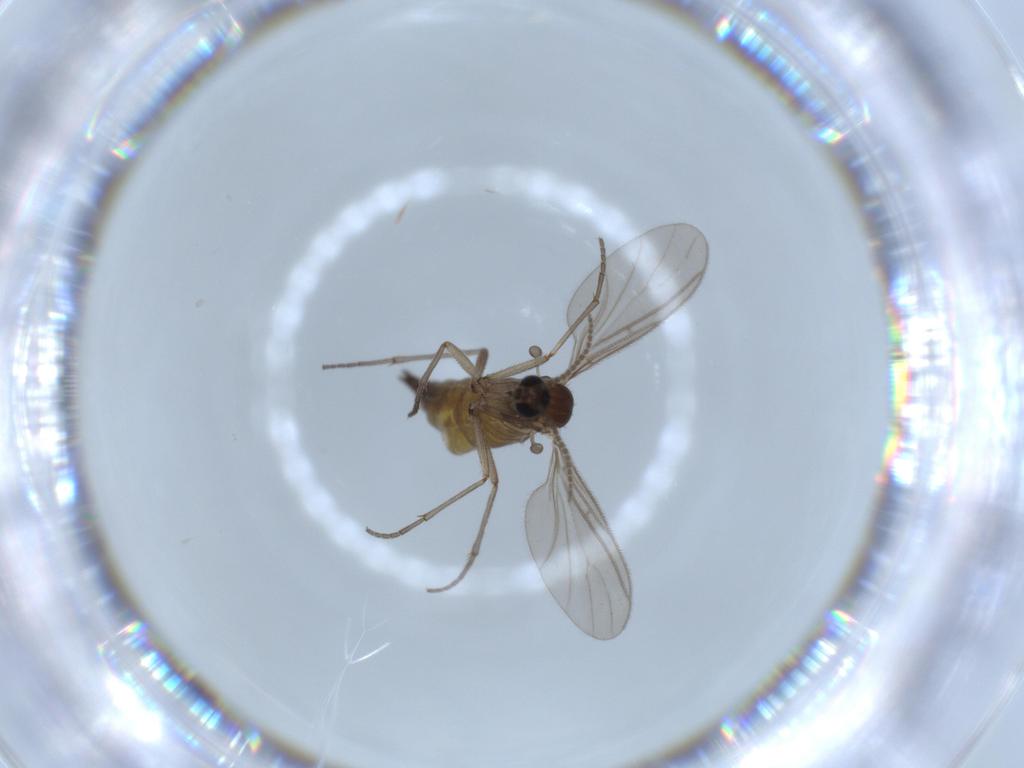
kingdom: Animalia
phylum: Arthropoda
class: Insecta
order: Diptera
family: Sciaridae
